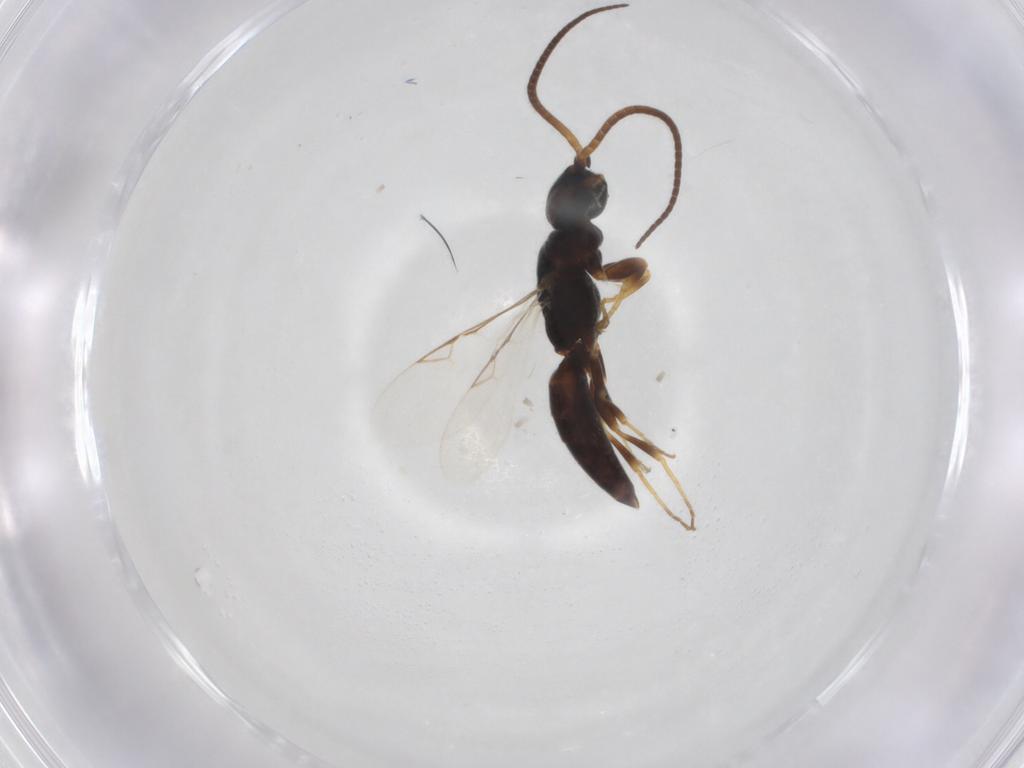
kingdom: Animalia
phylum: Arthropoda
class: Insecta
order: Hymenoptera
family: Sclerogibbidae
